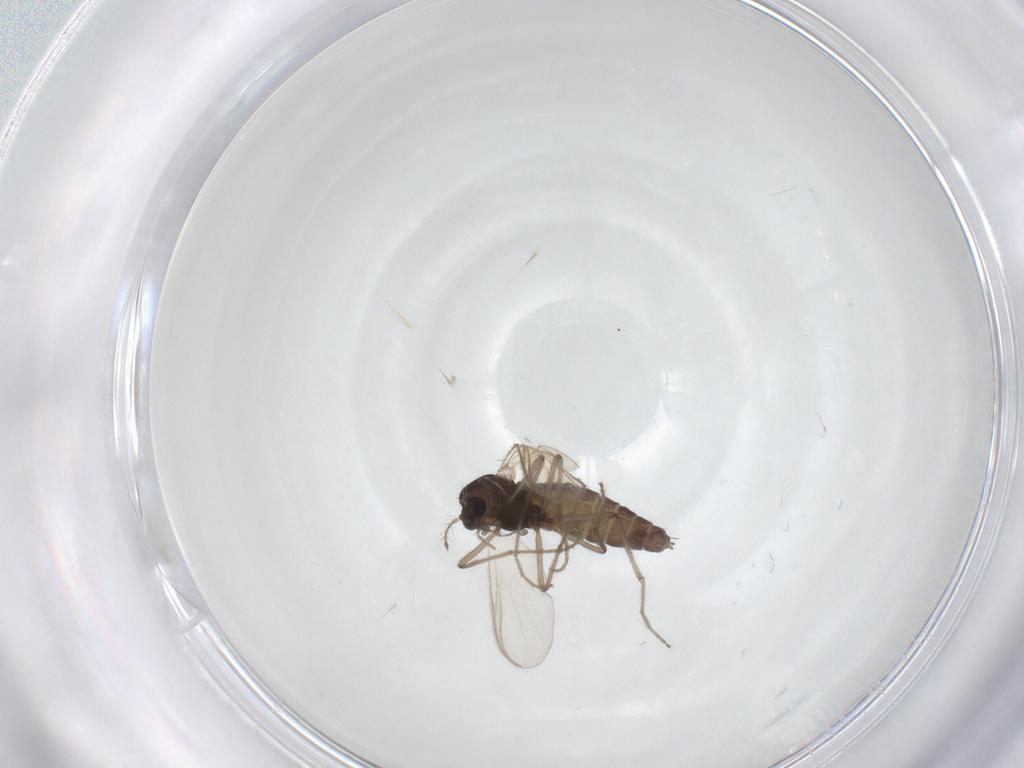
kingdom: Animalia
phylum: Arthropoda
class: Insecta
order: Diptera
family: Chironomidae
